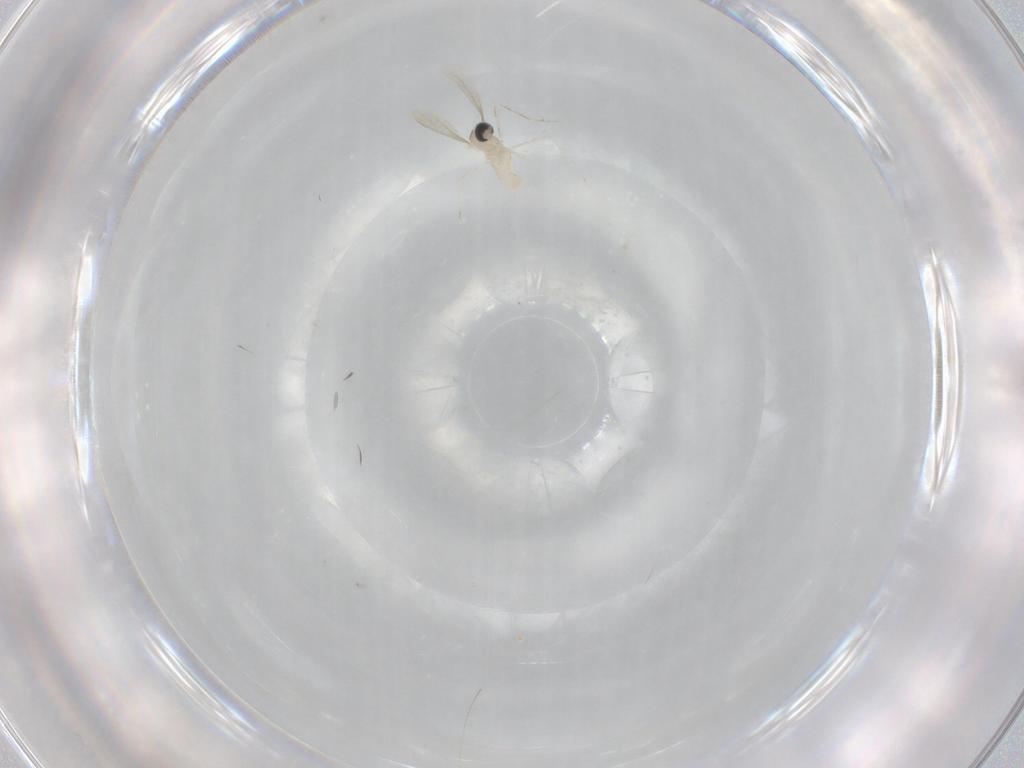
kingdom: Animalia
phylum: Arthropoda
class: Insecta
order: Diptera
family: Cecidomyiidae
